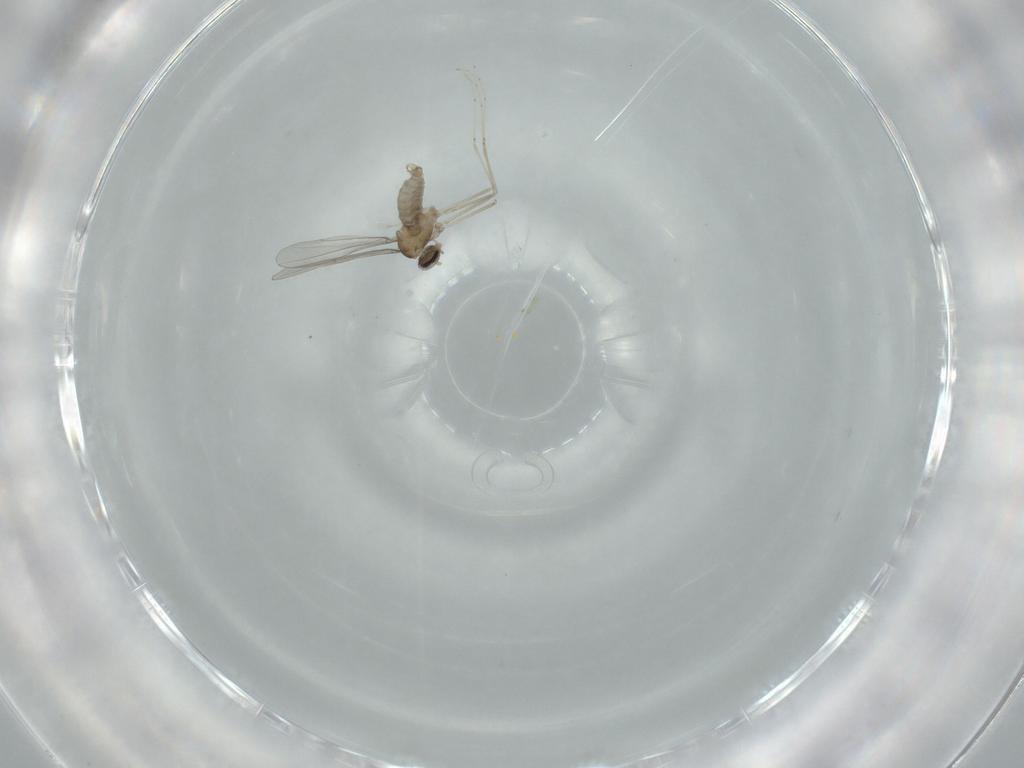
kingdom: Animalia
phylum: Arthropoda
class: Insecta
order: Diptera
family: Cecidomyiidae
